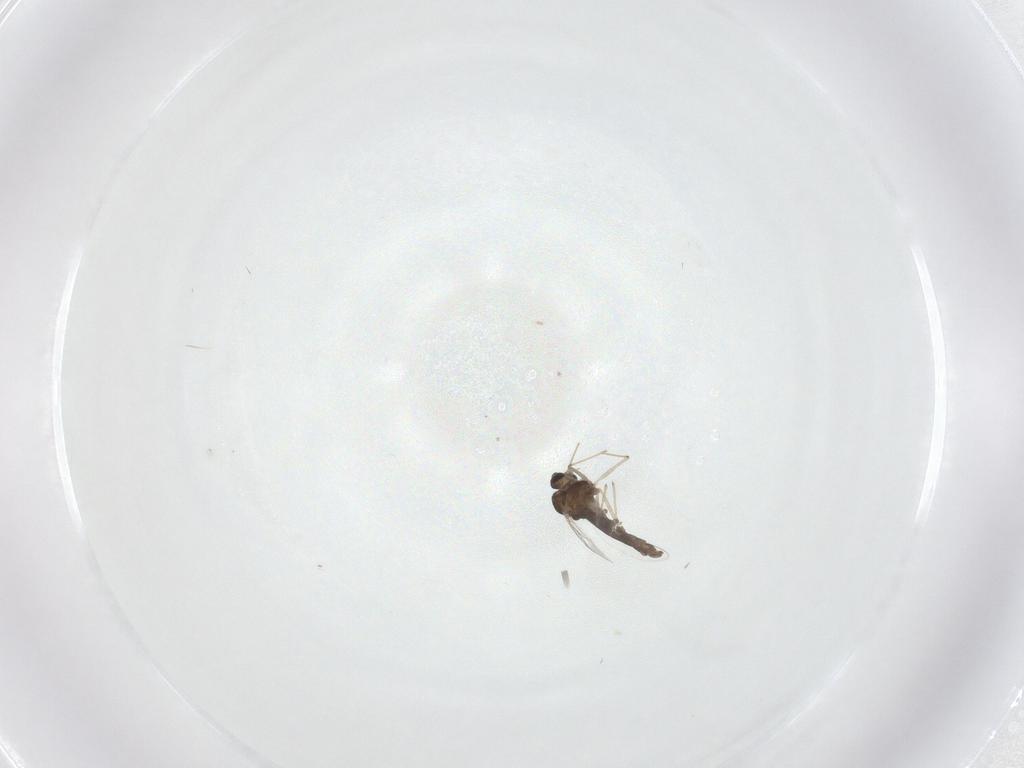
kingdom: Animalia
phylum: Arthropoda
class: Insecta
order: Diptera
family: Chironomidae
